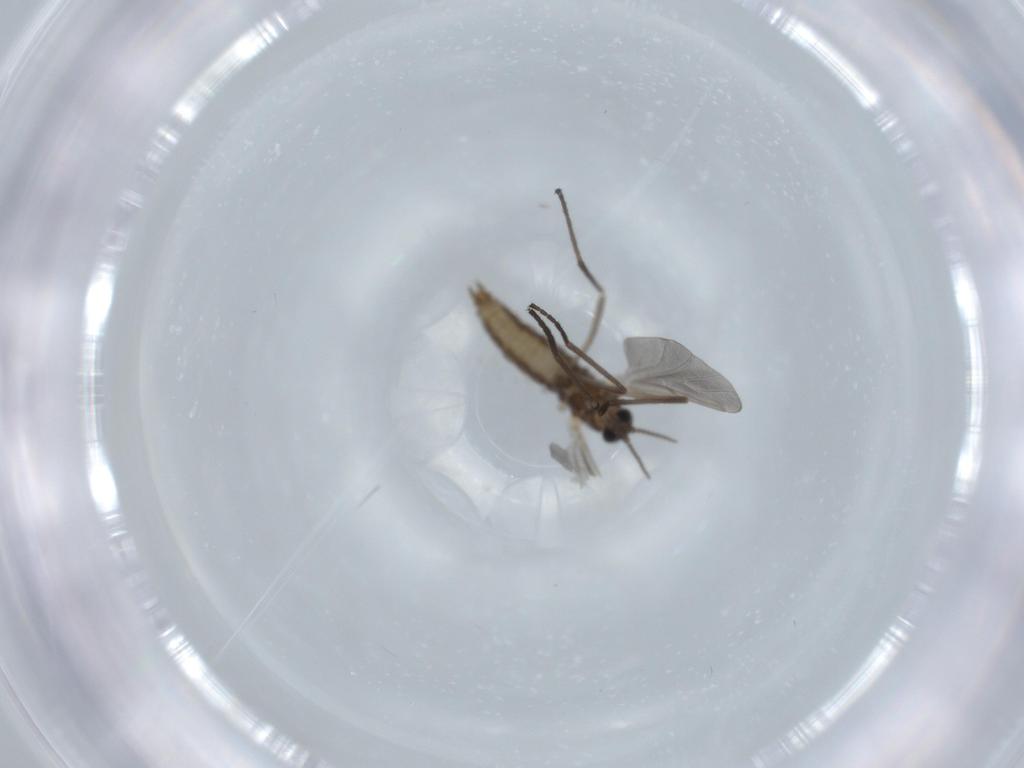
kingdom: Animalia
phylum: Arthropoda
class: Insecta
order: Diptera
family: Cecidomyiidae
